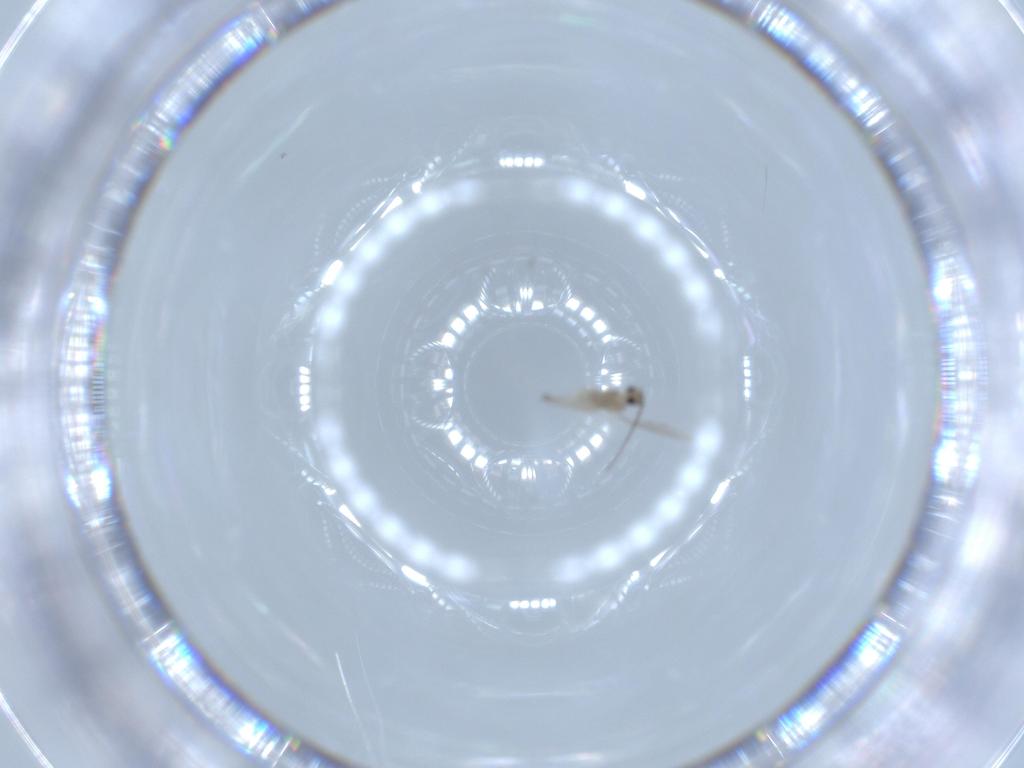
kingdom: Animalia
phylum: Arthropoda
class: Insecta
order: Diptera
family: Cecidomyiidae
